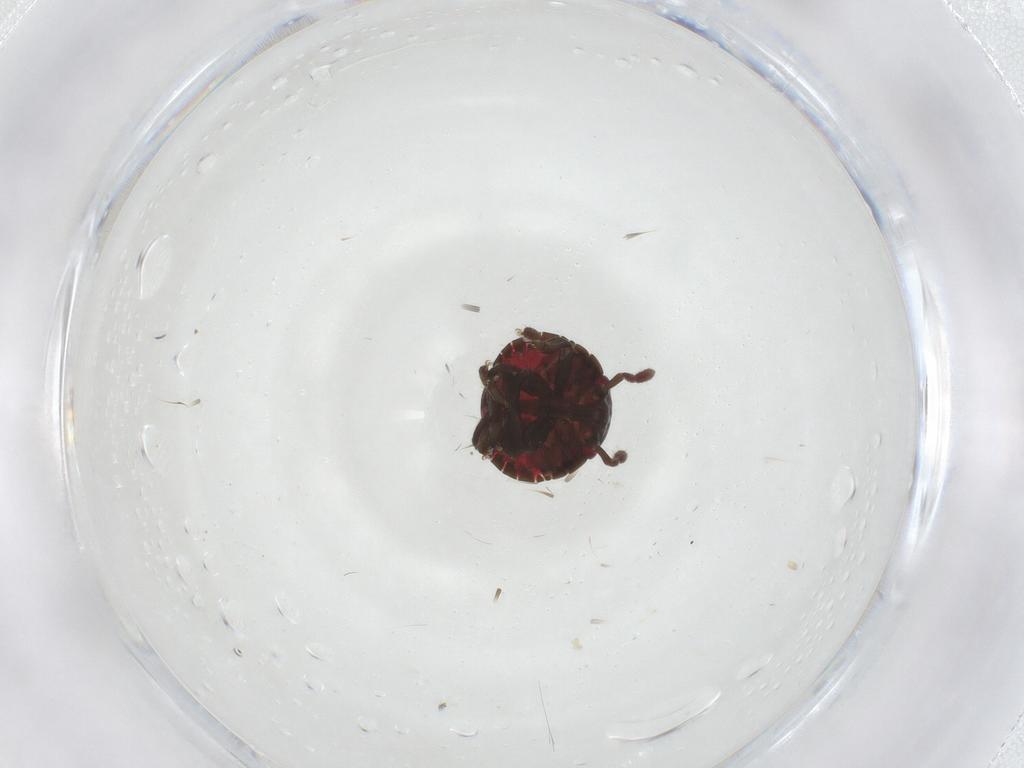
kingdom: Animalia
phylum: Arthropoda
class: Insecta
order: Hemiptera
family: Pentatomidae
